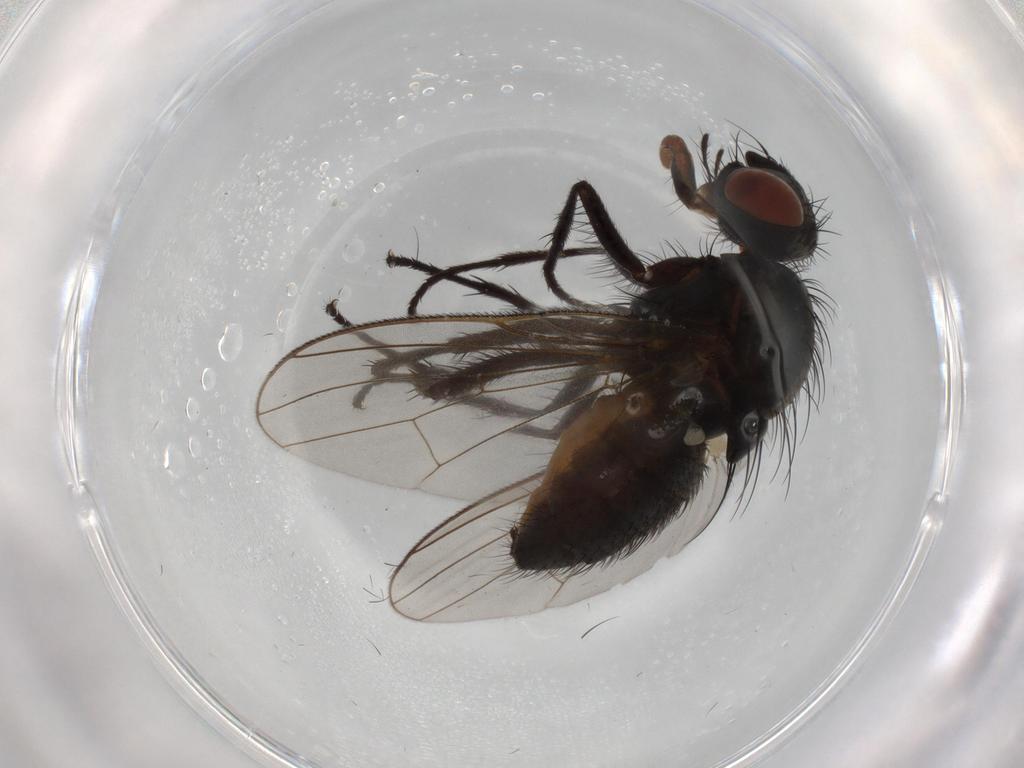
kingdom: Animalia
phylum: Arthropoda
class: Insecta
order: Diptera
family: Anthomyiidae
